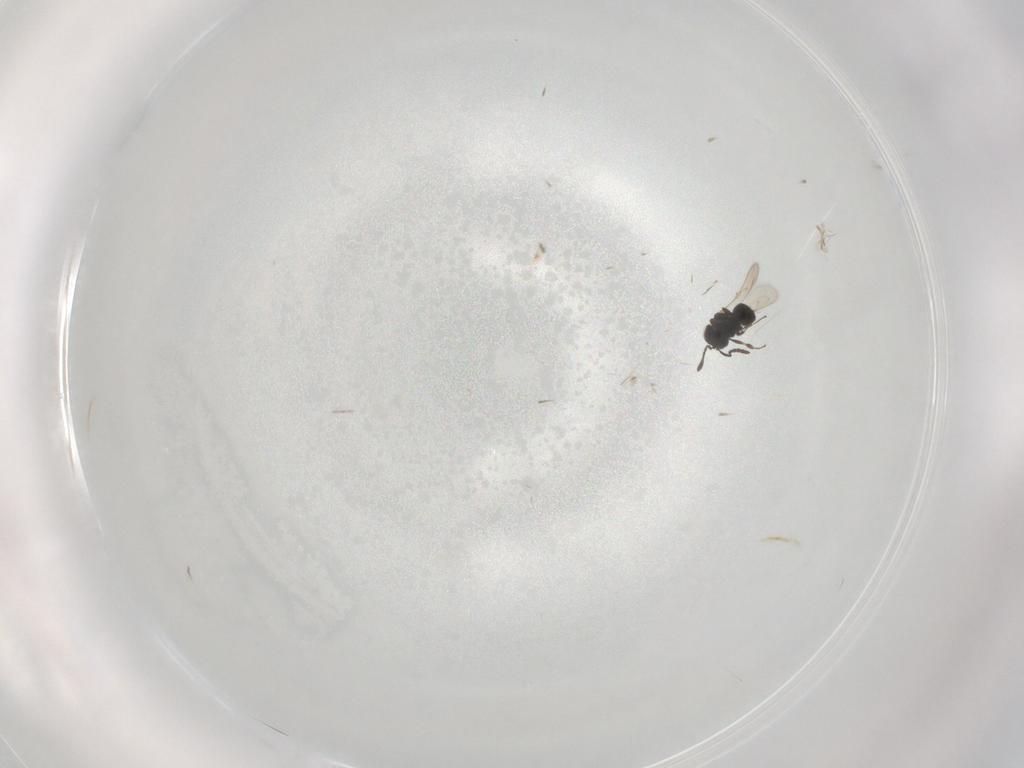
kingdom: Animalia
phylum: Arthropoda
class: Insecta
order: Hymenoptera
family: Scelionidae
